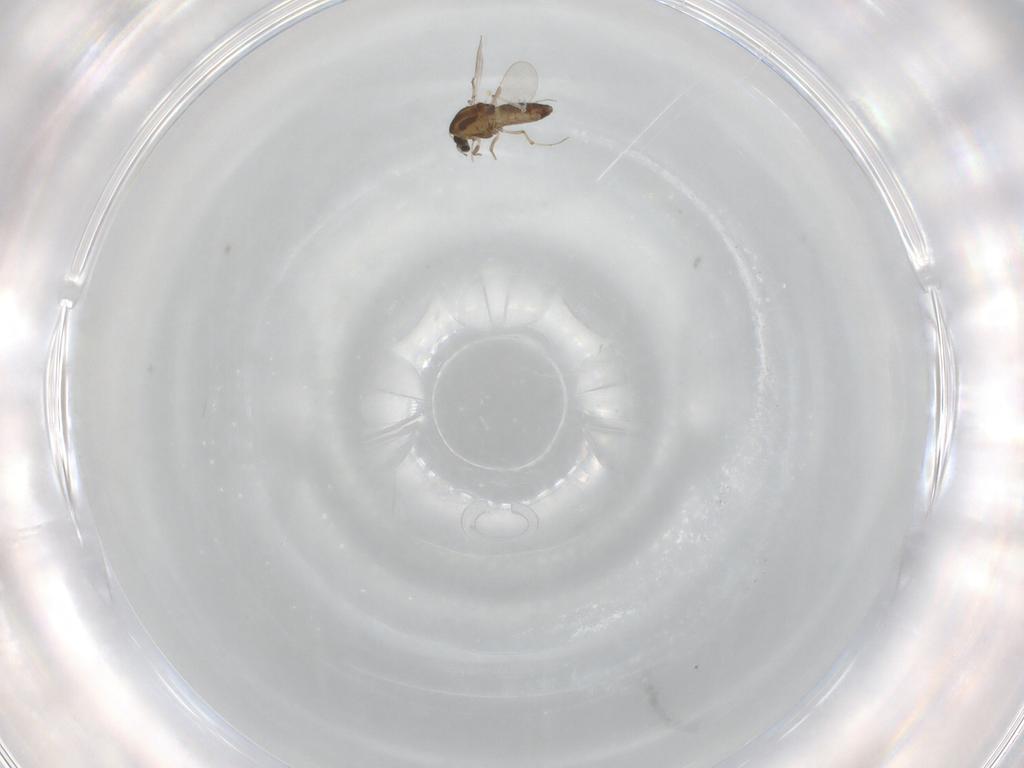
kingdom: Animalia
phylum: Arthropoda
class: Insecta
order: Diptera
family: Chironomidae
